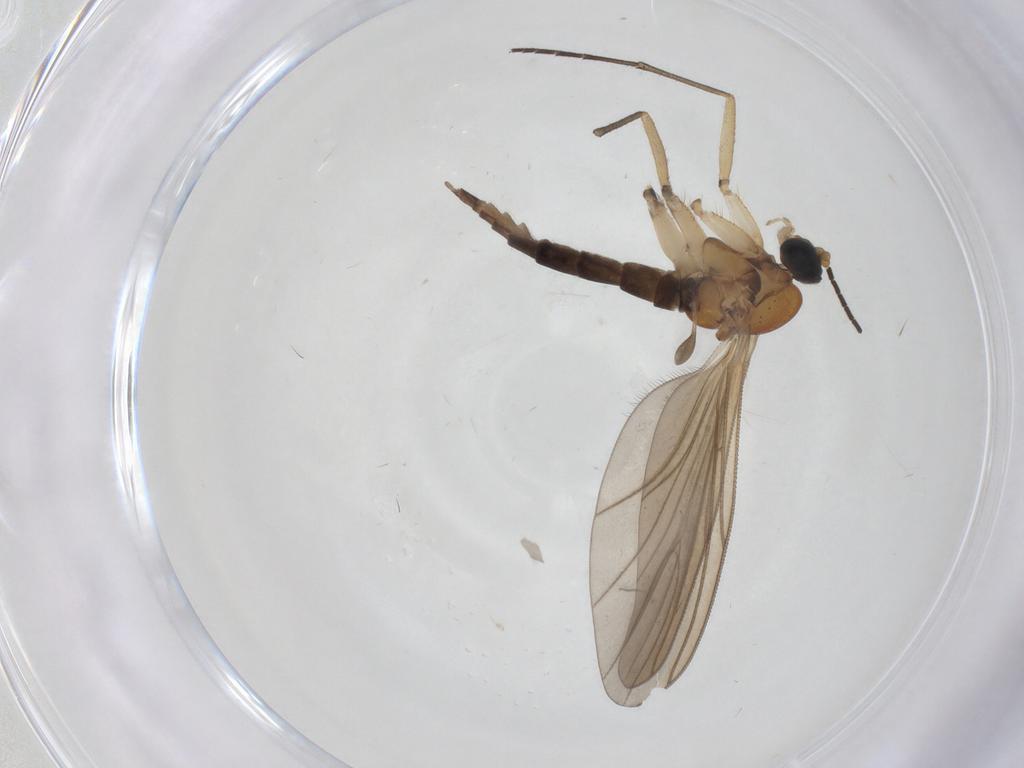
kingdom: Animalia
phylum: Arthropoda
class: Insecta
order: Diptera
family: Sciaridae
